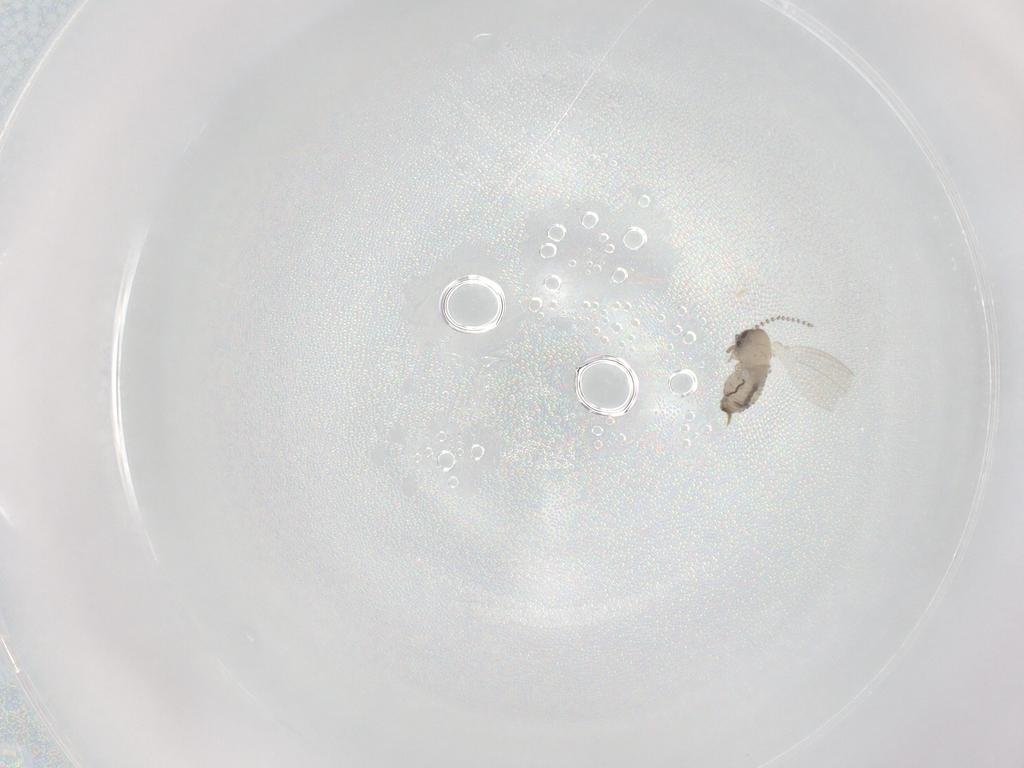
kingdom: Animalia
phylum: Arthropoda
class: Insecta
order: Diptera
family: Psychodidae
